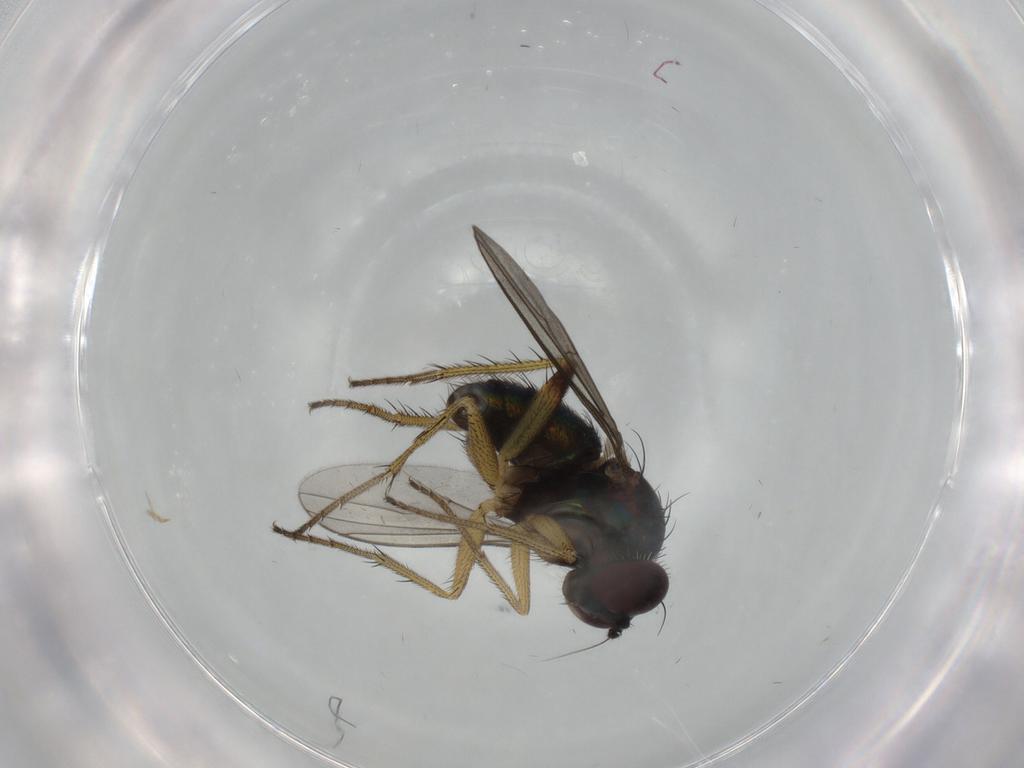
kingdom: Animalia
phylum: Arthropoda
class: Insecta
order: Diptera
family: Dolichopodidae
